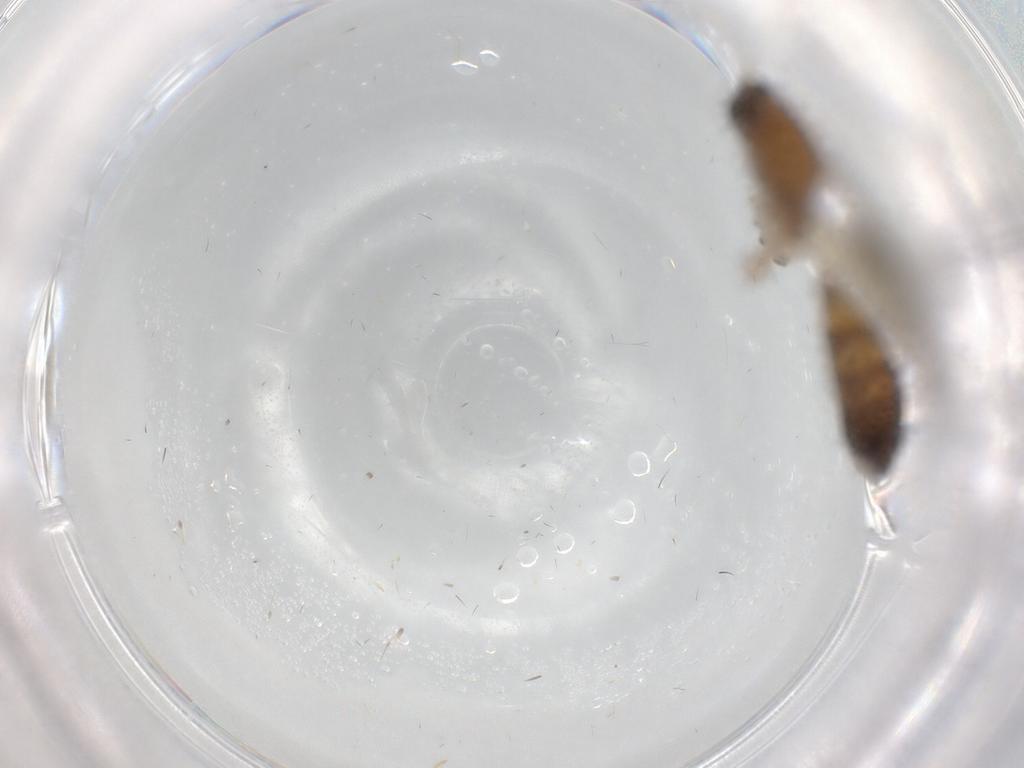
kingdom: Animalia
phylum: Arthropoda
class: Insecta
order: Diptera
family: Keroplatidae
